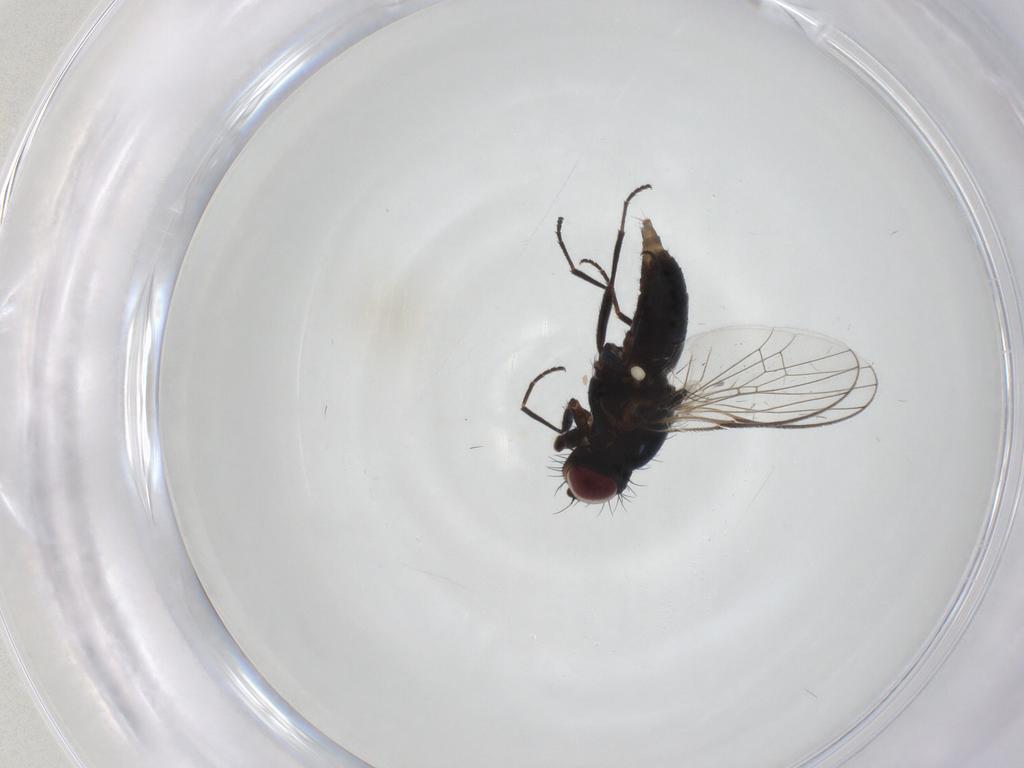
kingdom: Animalia
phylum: Arthropoda
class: Insecta
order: Diptera
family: Carnidae
